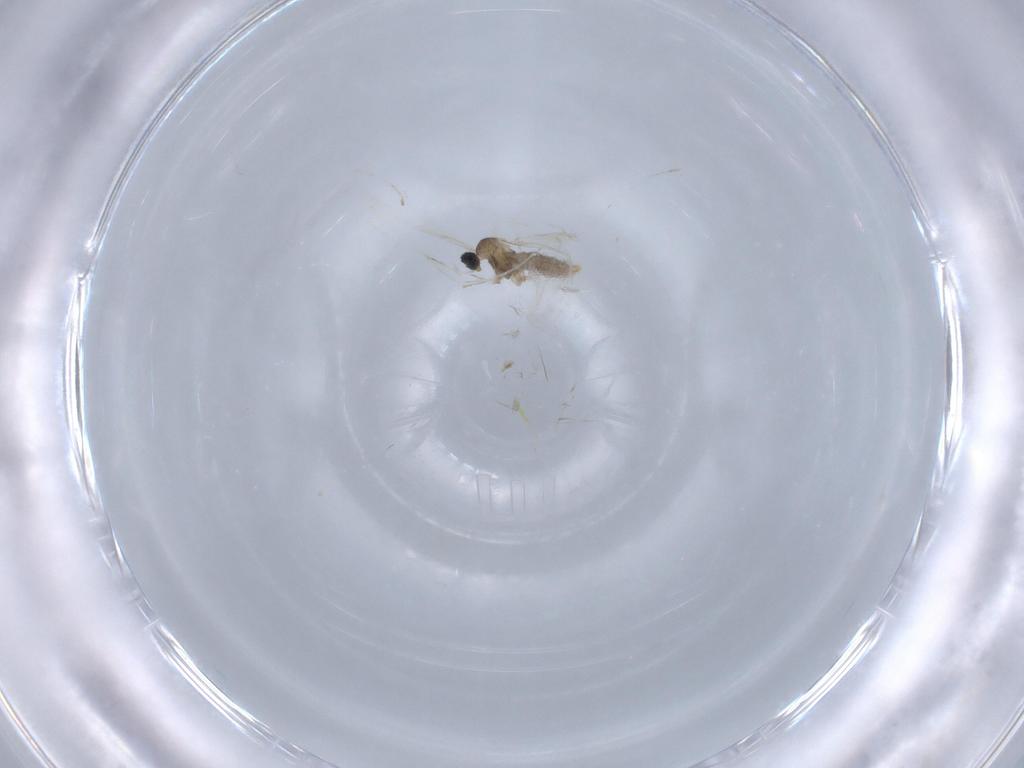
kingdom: Animalia
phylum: Arthropoda
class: Insecta
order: Diptera
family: Cecidomyiidae
